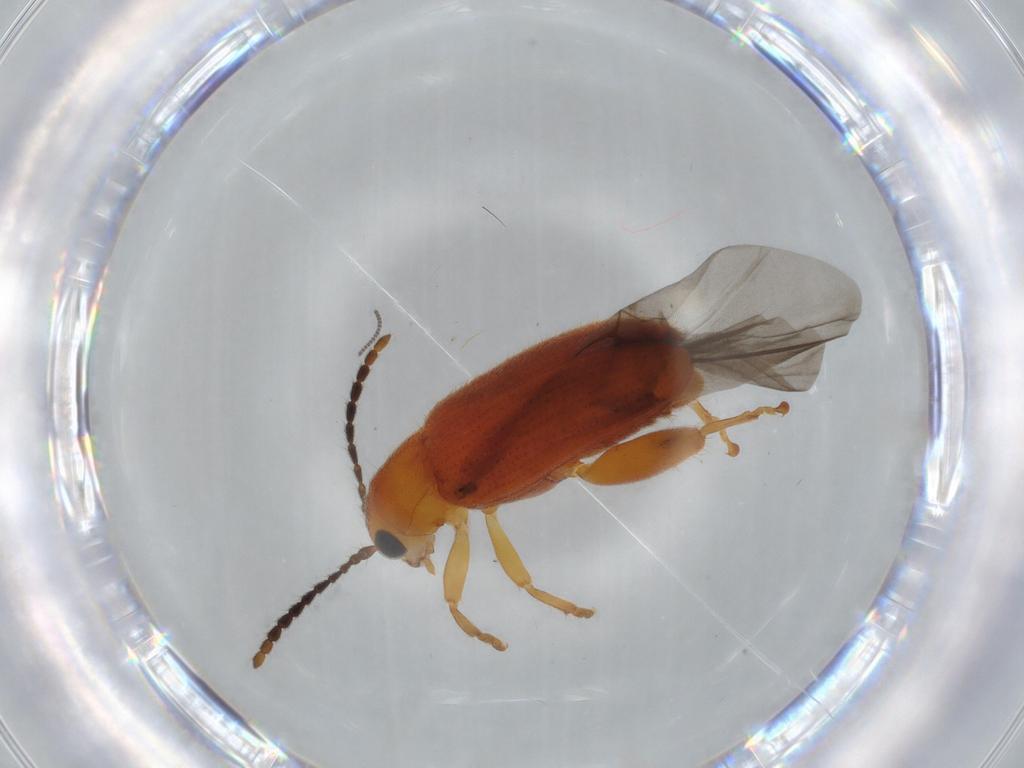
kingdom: Animalia
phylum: Arthropoda
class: Insecta
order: Coleoptera
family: Chrysomelidae
